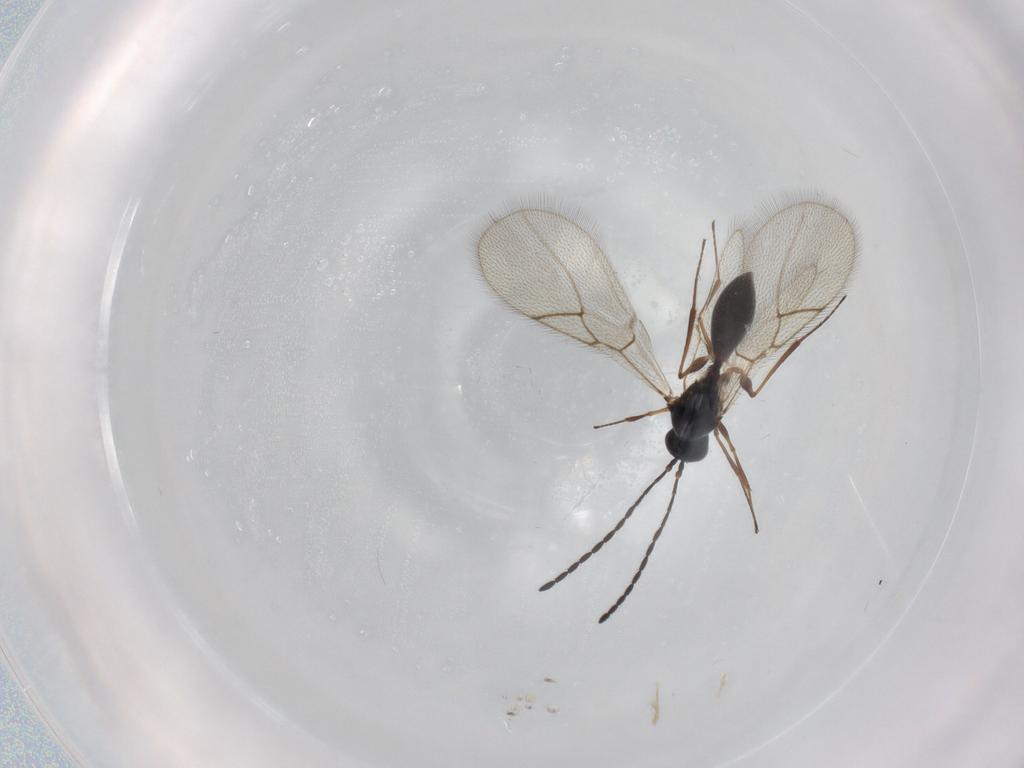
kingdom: Animalia
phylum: Arthropoda
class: Insecta
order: Hymenoptera
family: Figitidae
